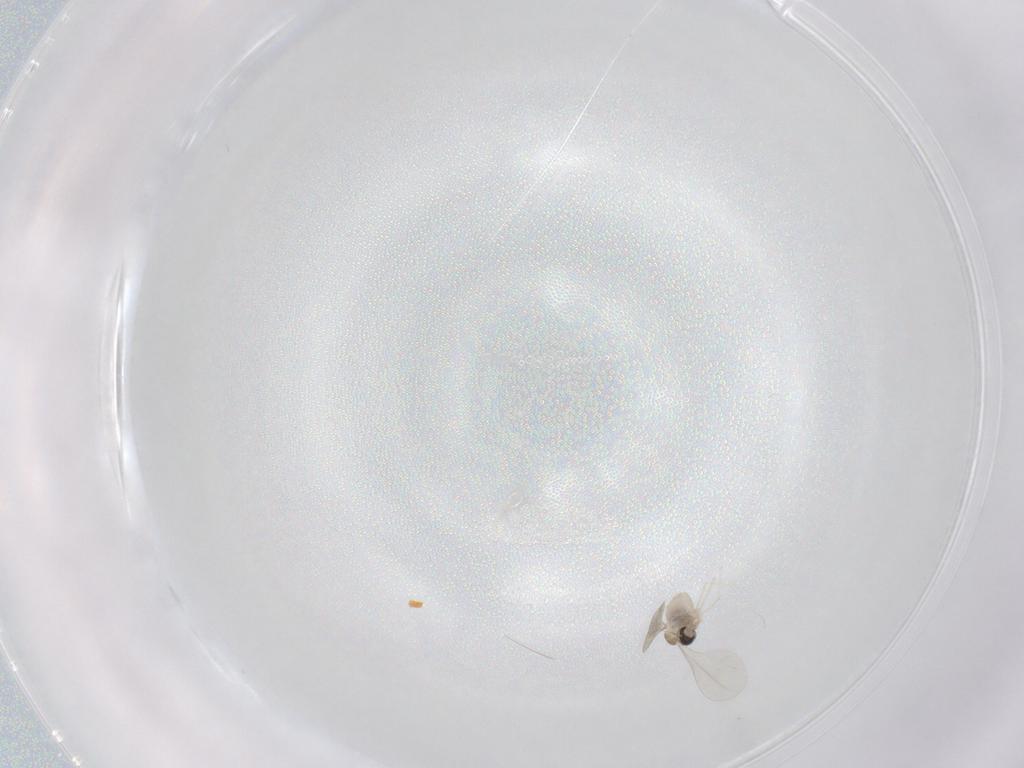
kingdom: Animalia
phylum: Arthropoda
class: Insecta
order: Diptera
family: Cecidomyiidae
